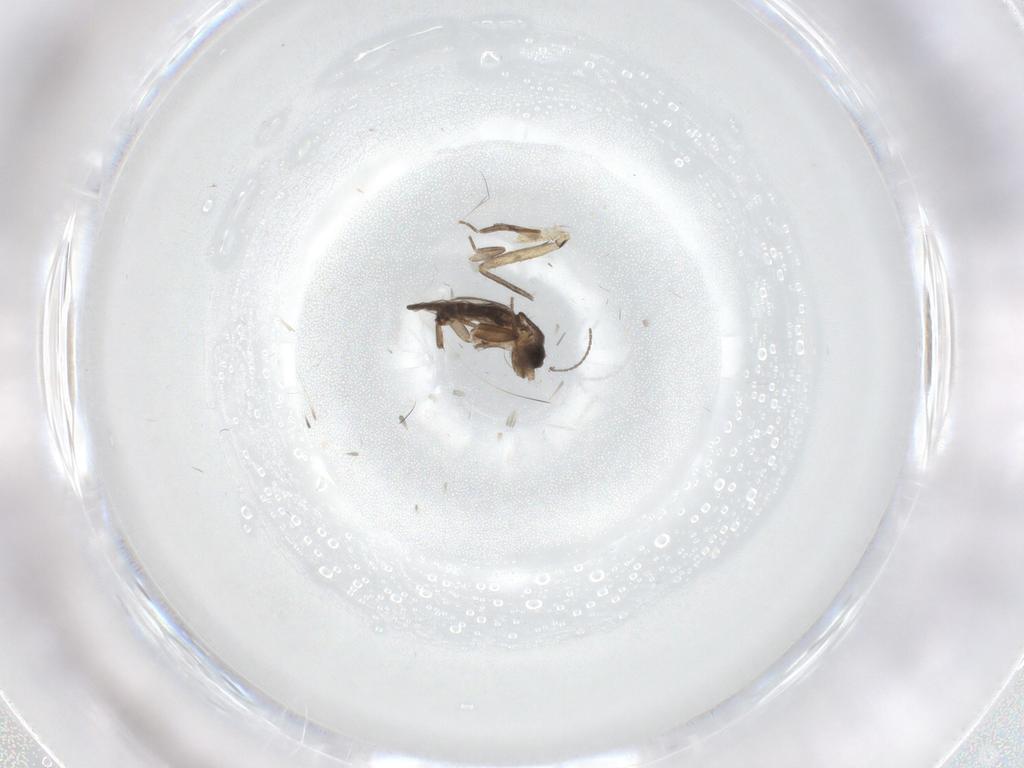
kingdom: Animalia
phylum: Arthropoda
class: Insecta
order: Diptera
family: Phoridae
